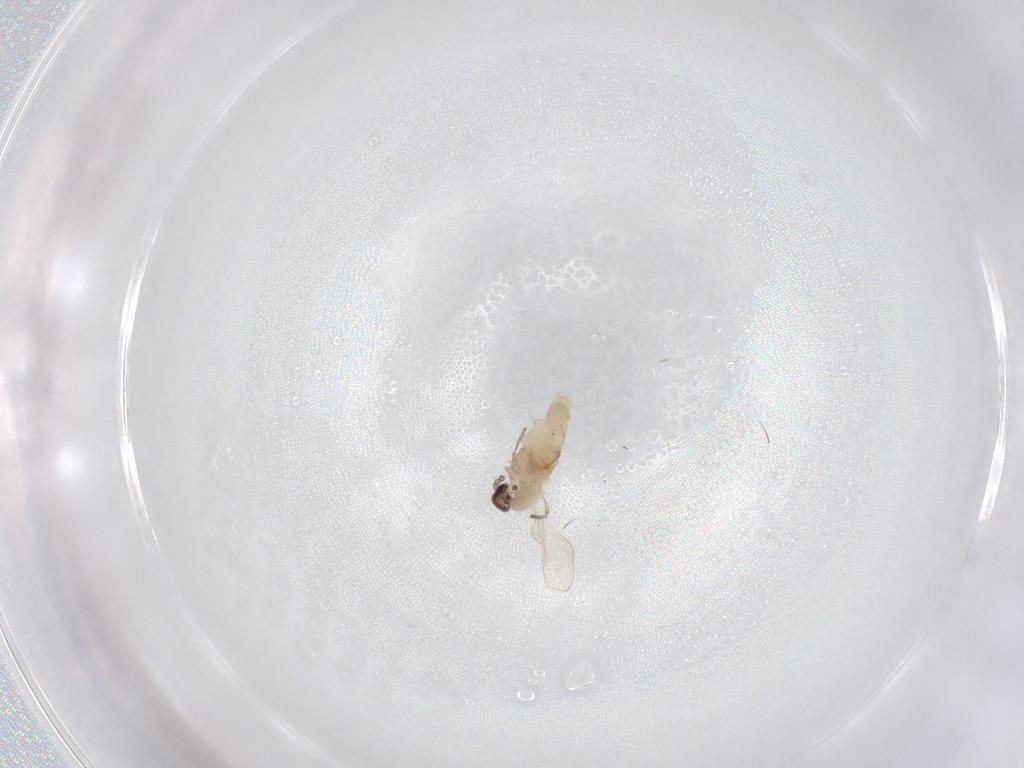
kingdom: Animalia
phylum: Arthropoda
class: Insecta
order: Diptera
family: Psychodidae
